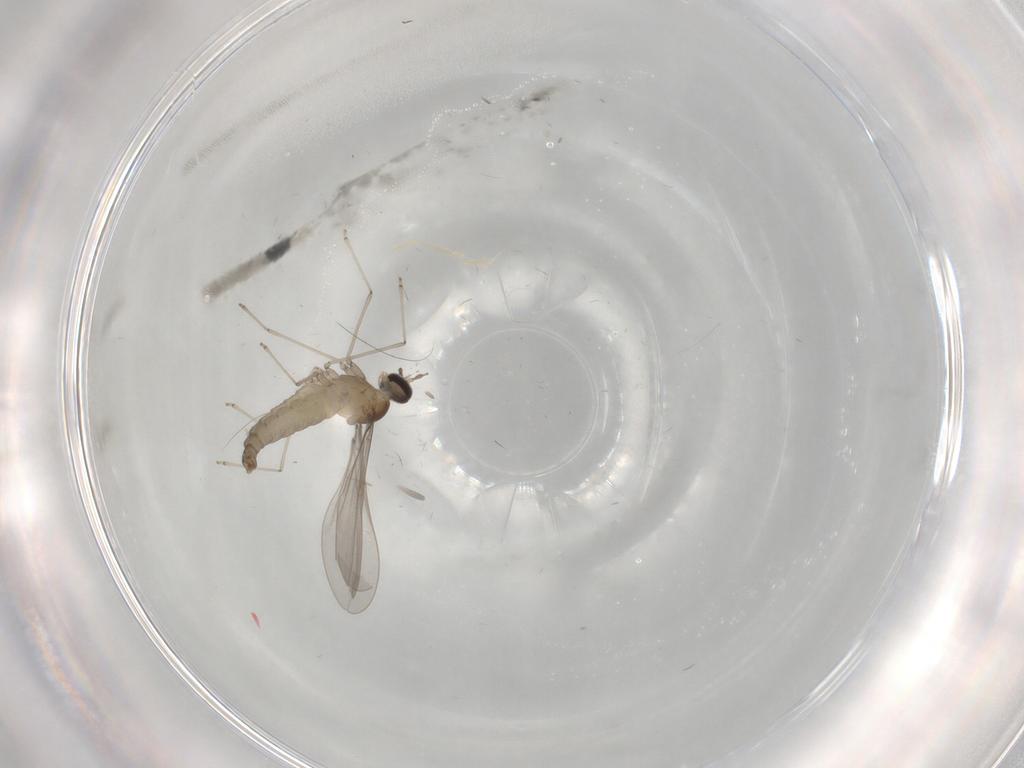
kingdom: Animalia
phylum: Arthropoda
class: Insecta
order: Diptera
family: Cecidomyiidae
